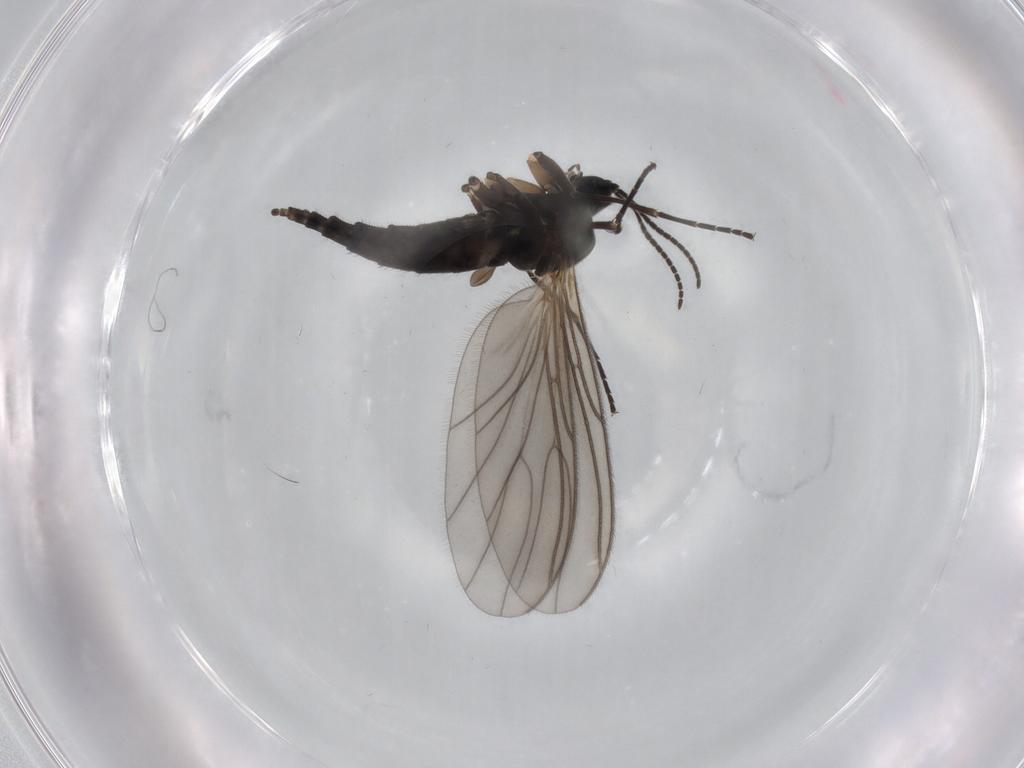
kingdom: Animalia
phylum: Arthropoda
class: Insecta
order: Diptera
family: Sciaridae
